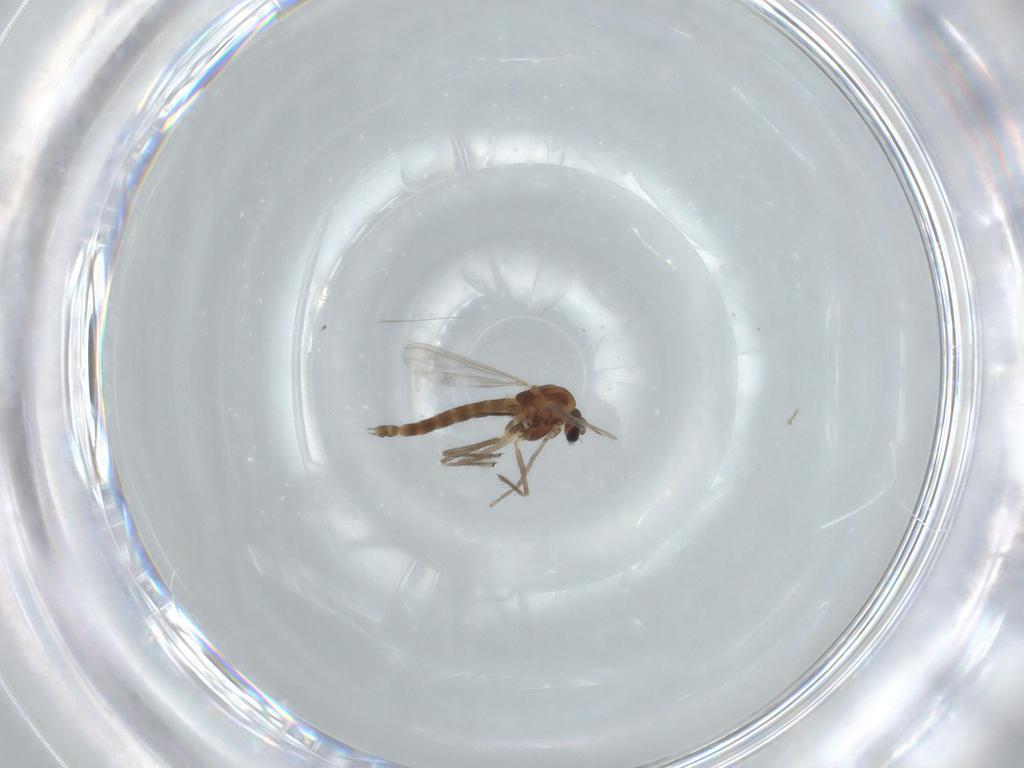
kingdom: Animalia
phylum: Arthropoda
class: Insecta
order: Diptera
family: Chironomidae
